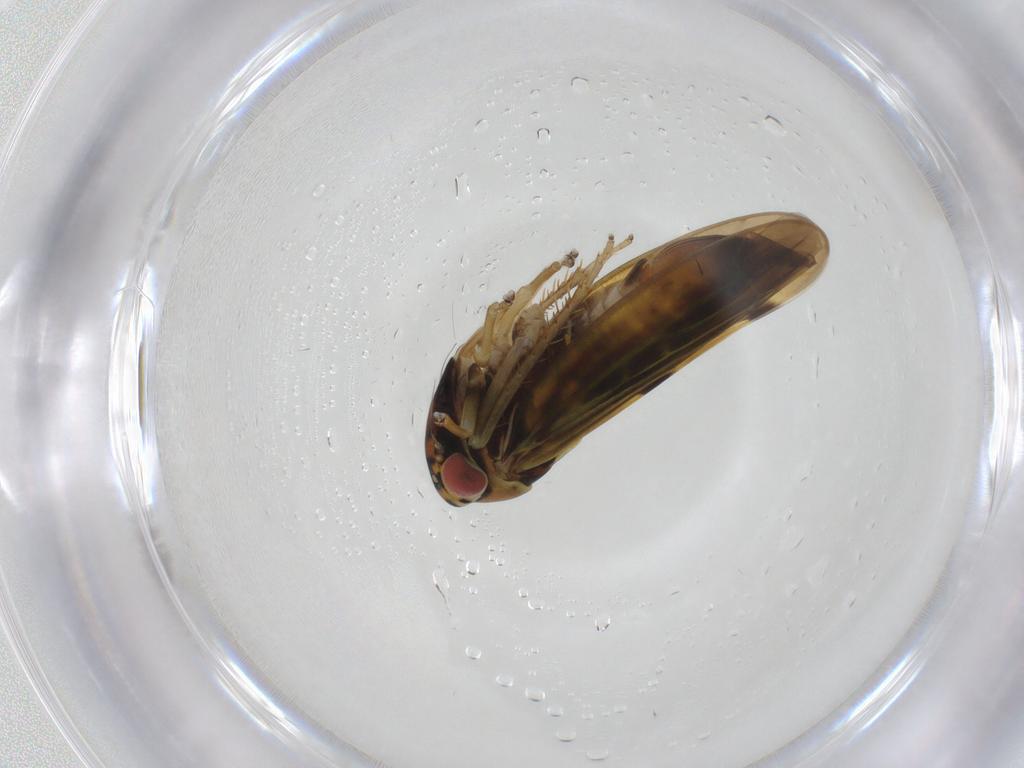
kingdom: Animalia
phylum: Arthropoda
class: Insecta
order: Hemiptera
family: Cicadellidae
